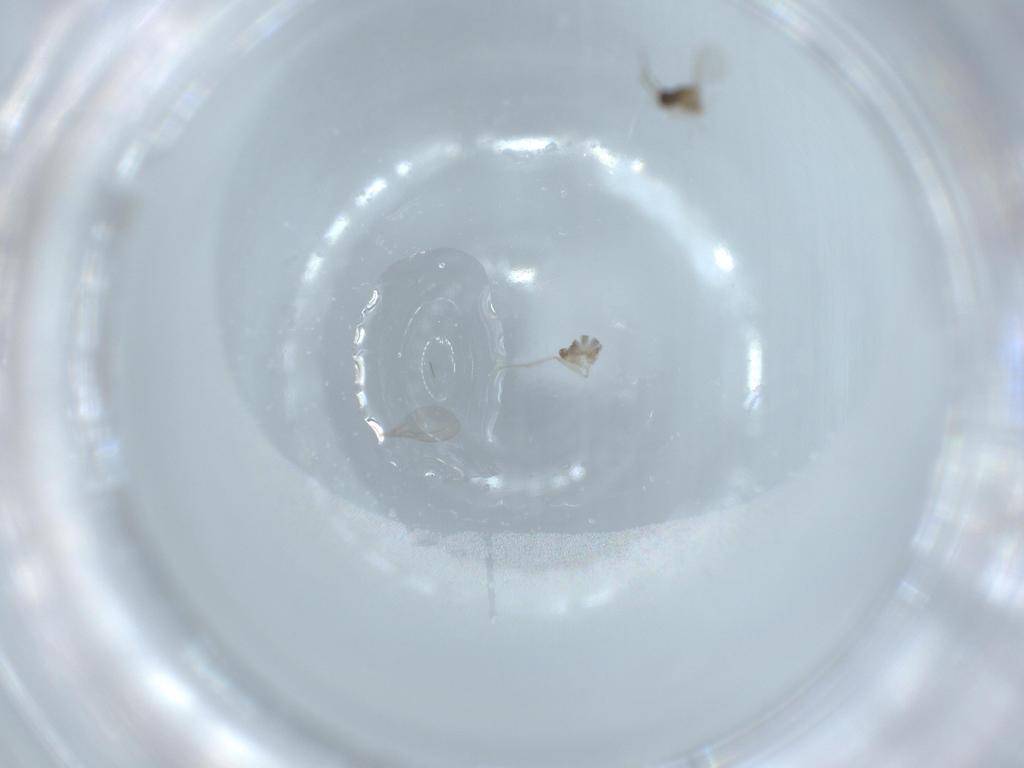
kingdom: Animalia
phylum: Arthropoda
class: Insecta
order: Diptera
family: Cecidomyiidae
